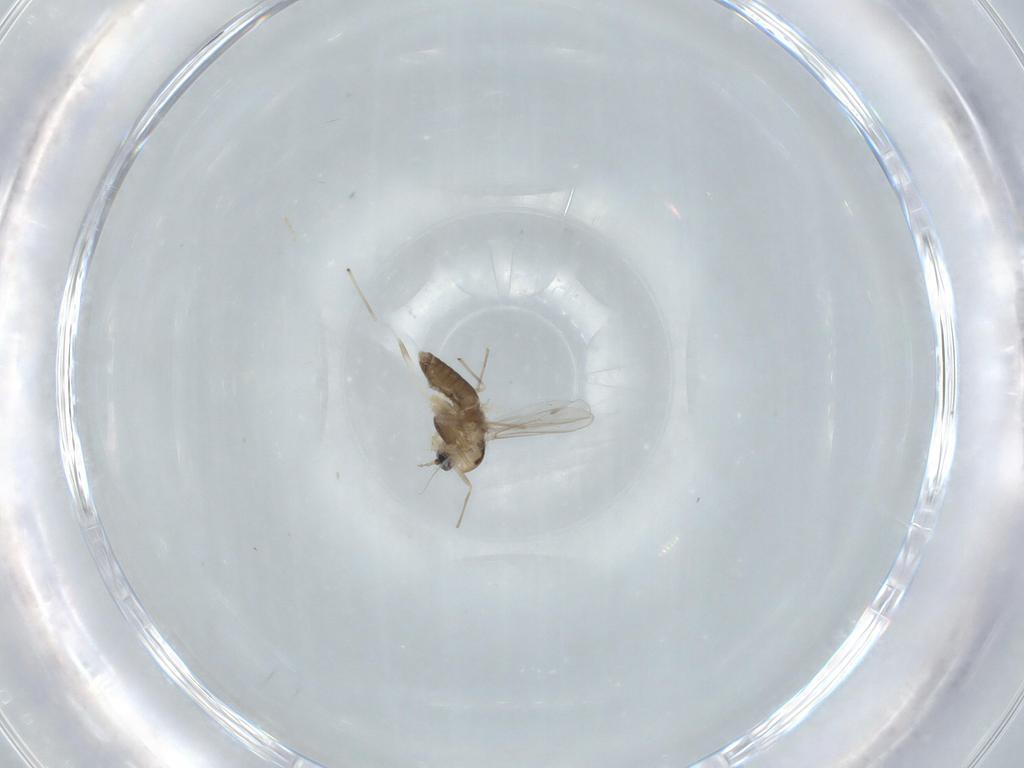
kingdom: Animalia
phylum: Arthropoda
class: Insecta
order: Diptera
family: Chironomidae
